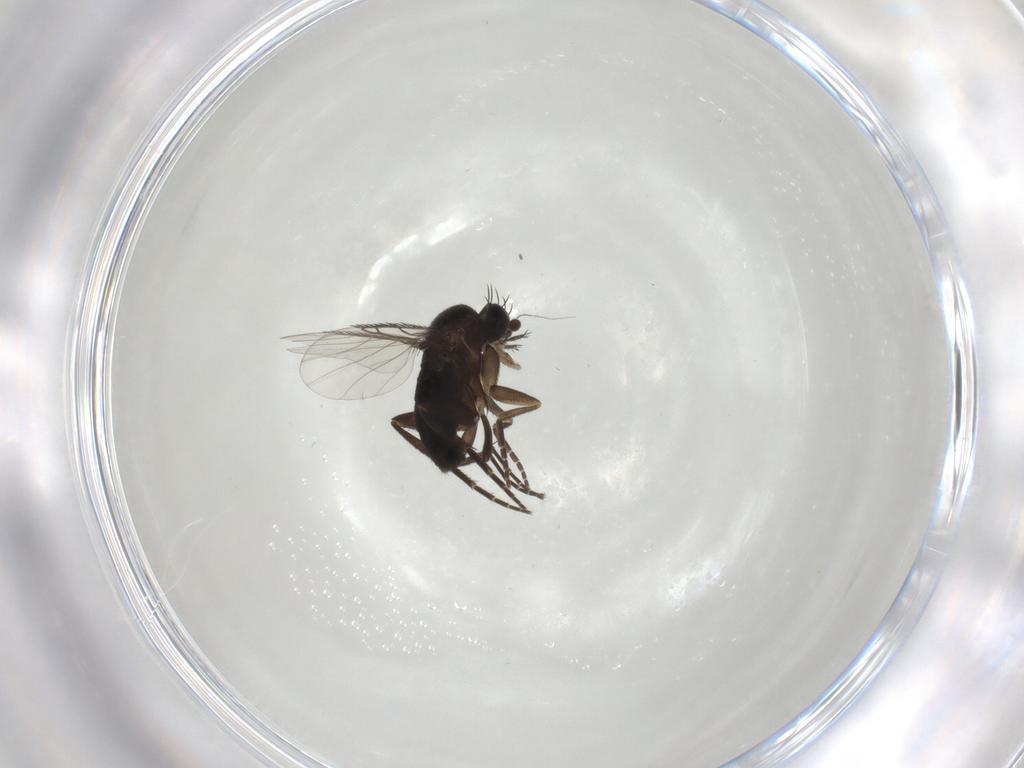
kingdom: Animalia
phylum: Arthropoda
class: Insecta
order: Diptera
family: Phoridae
